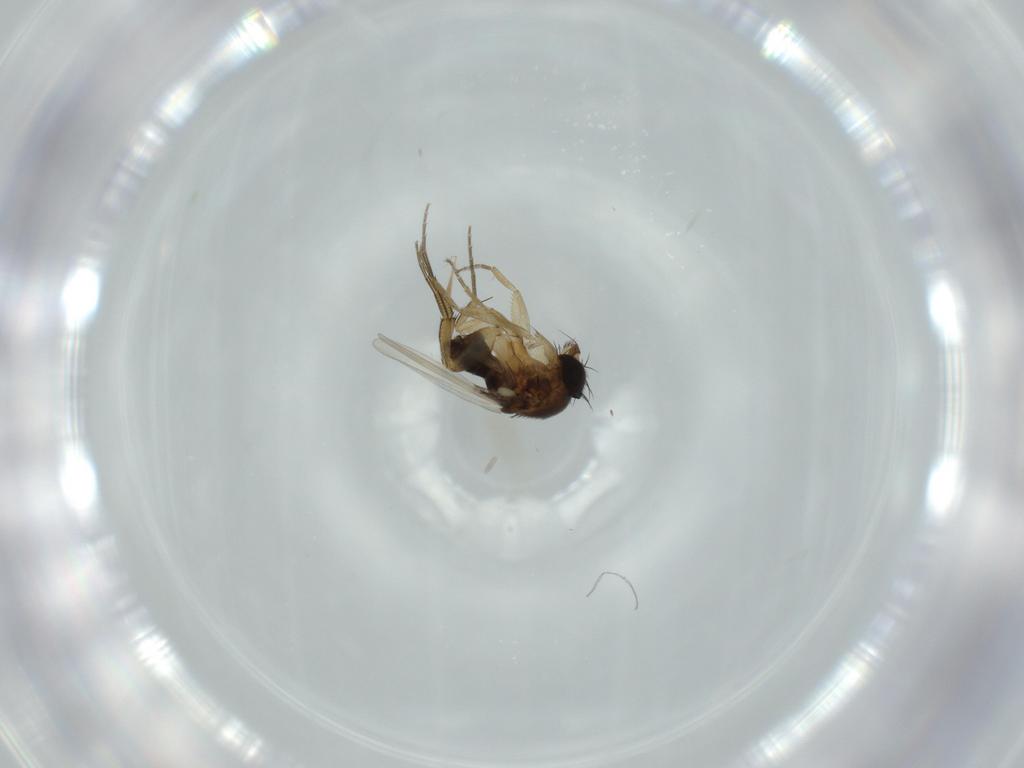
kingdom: Animalia
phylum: Arthropoda
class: Insecta
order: Diptera
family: Phoridae
